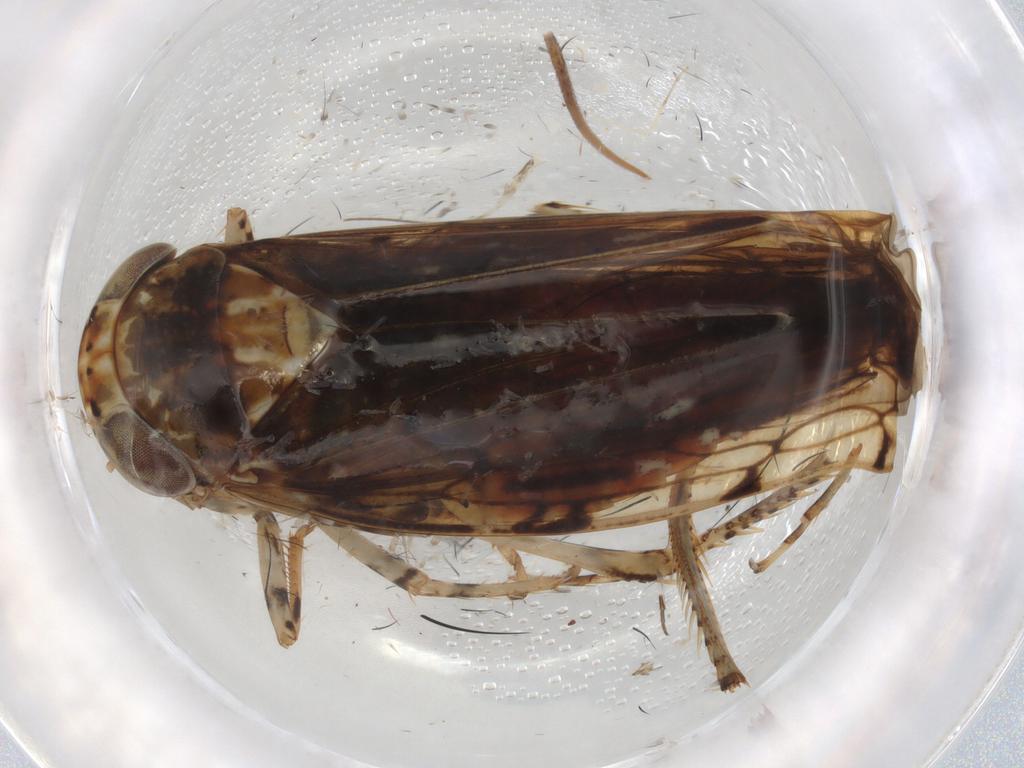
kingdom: Animalia
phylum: Arthropoda
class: Insecta
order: Hemiptera
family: Cicadellidae
